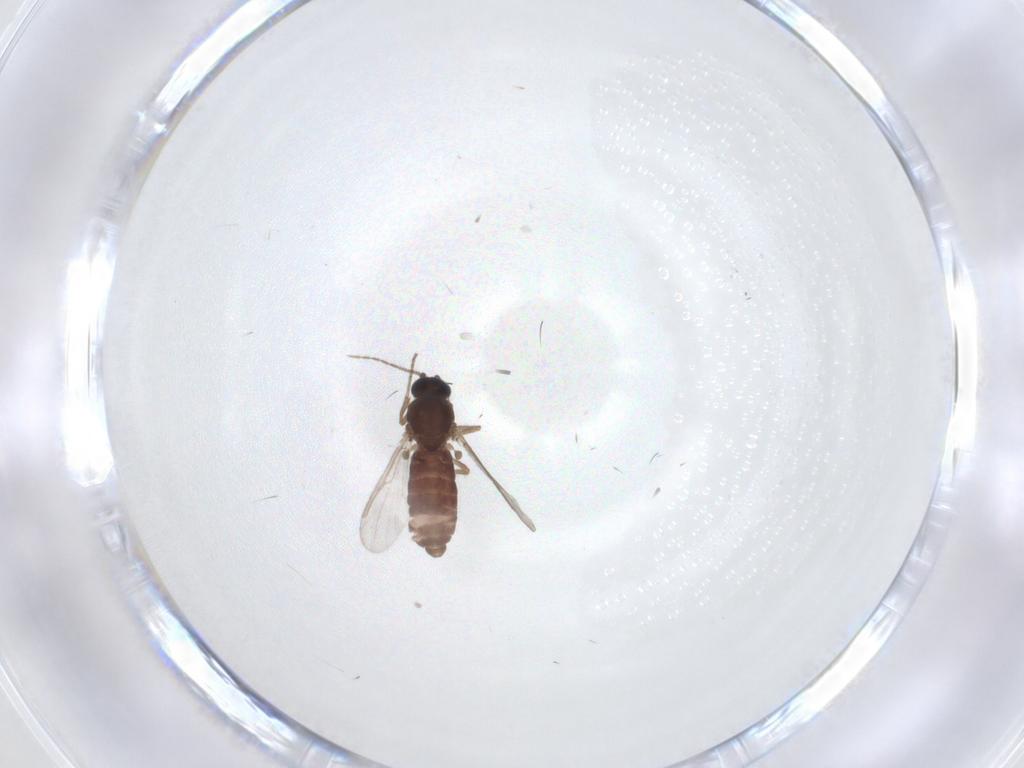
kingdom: Animalia
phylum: Arthropoda
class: Insecta
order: Diptera
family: Ceratopogonidae
